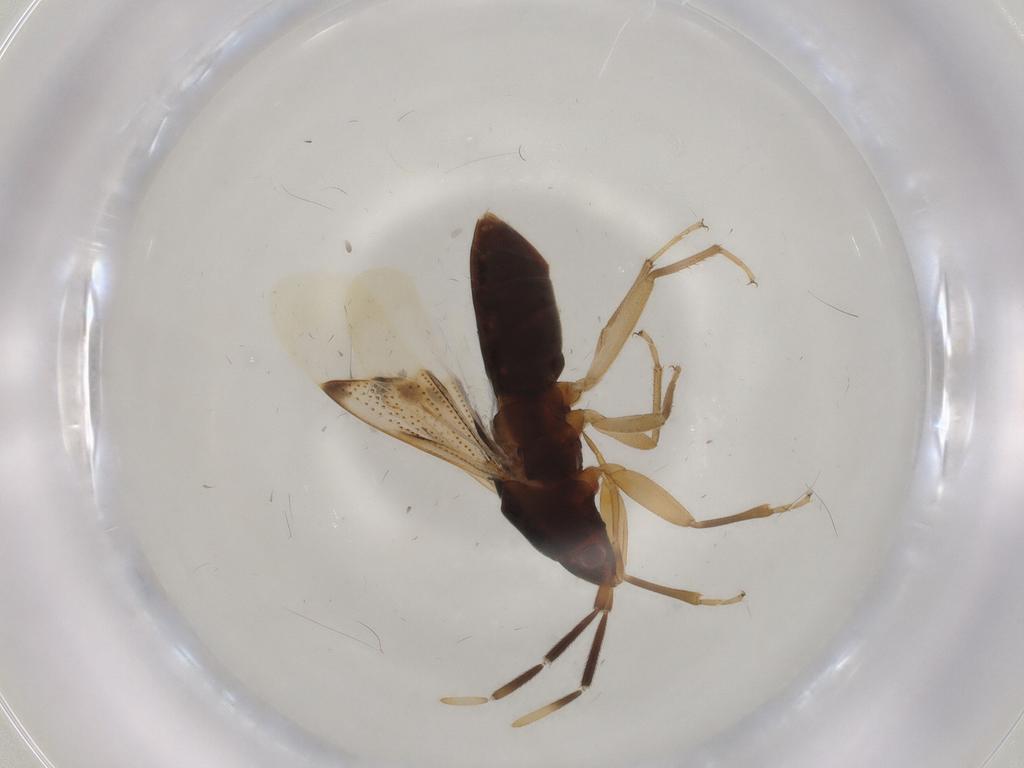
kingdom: Animalia
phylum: Arthropoda
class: Insecta
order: Hemiptera
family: Rhyparochromidae
